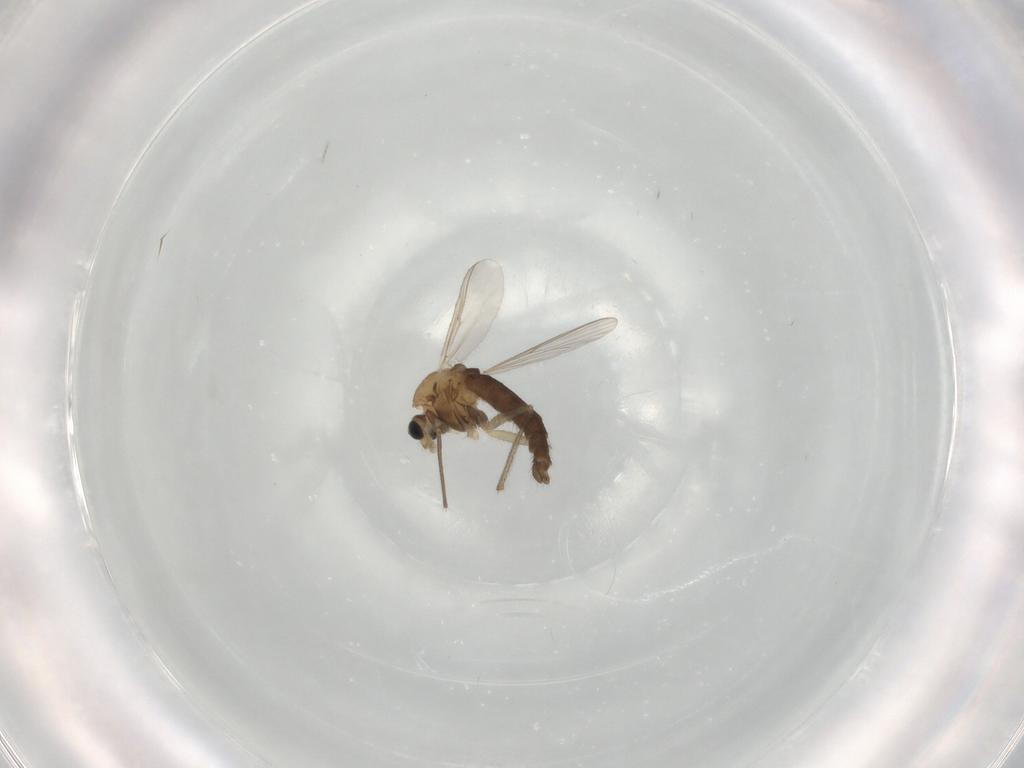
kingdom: Animalia
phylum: Arthropoda
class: Insecta
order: Diptera
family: Chironomidae
